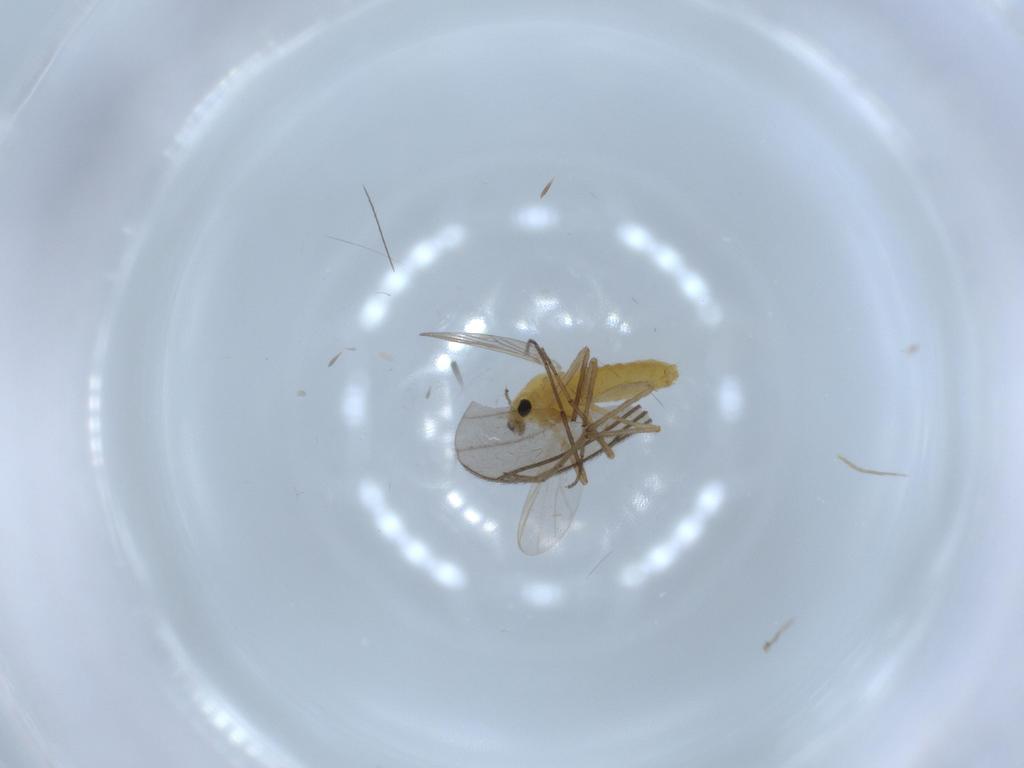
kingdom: Animalia
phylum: Arthropoda
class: Insecta
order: Diptera
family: Chironomidae
